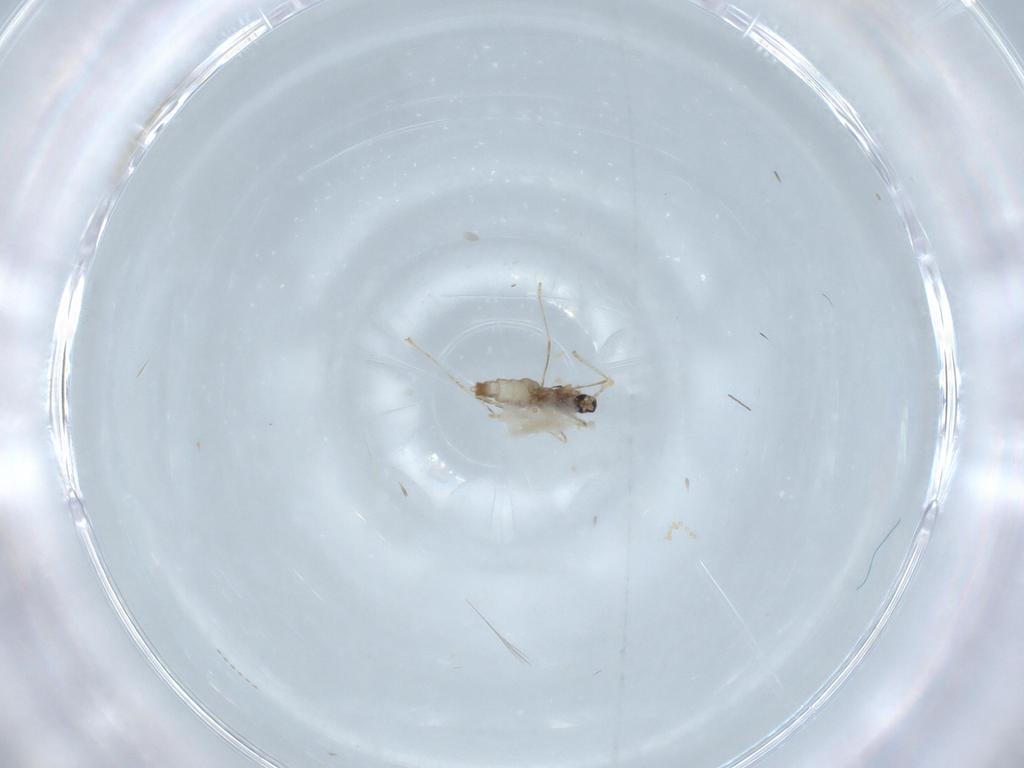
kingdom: Animalia
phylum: Arthropoda
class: Insecta
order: Diptera
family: Cecidomyiidae
